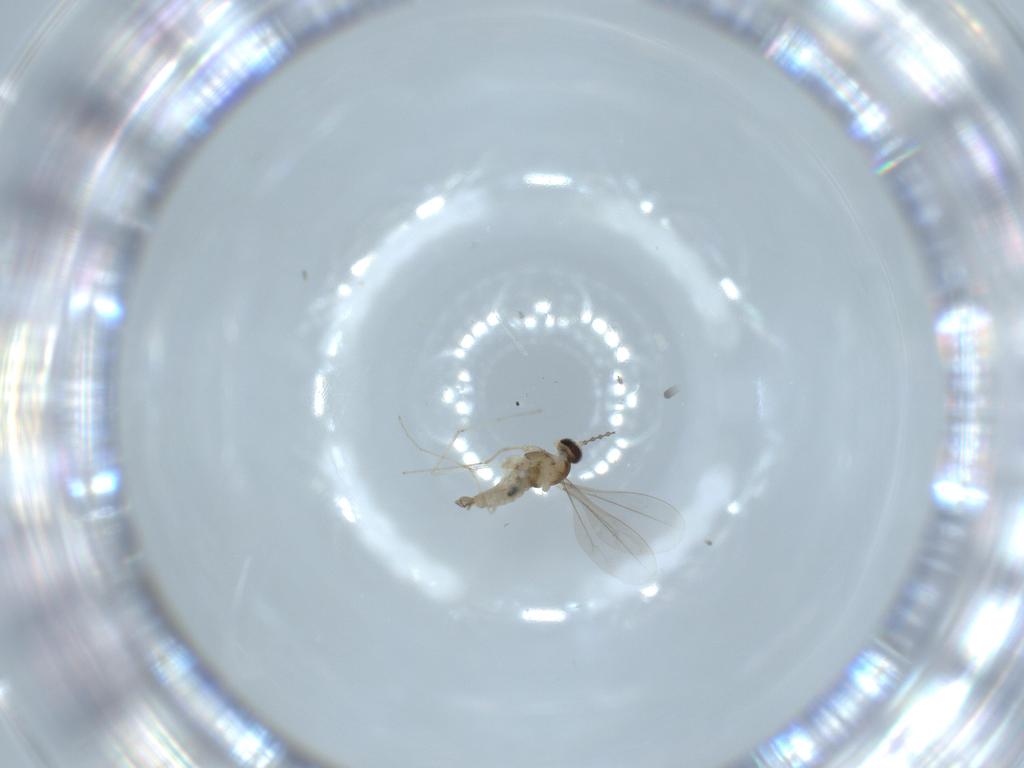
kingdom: Animalia
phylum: Arthropoda
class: Insecta
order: Diptera
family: Cecidomyiidae
